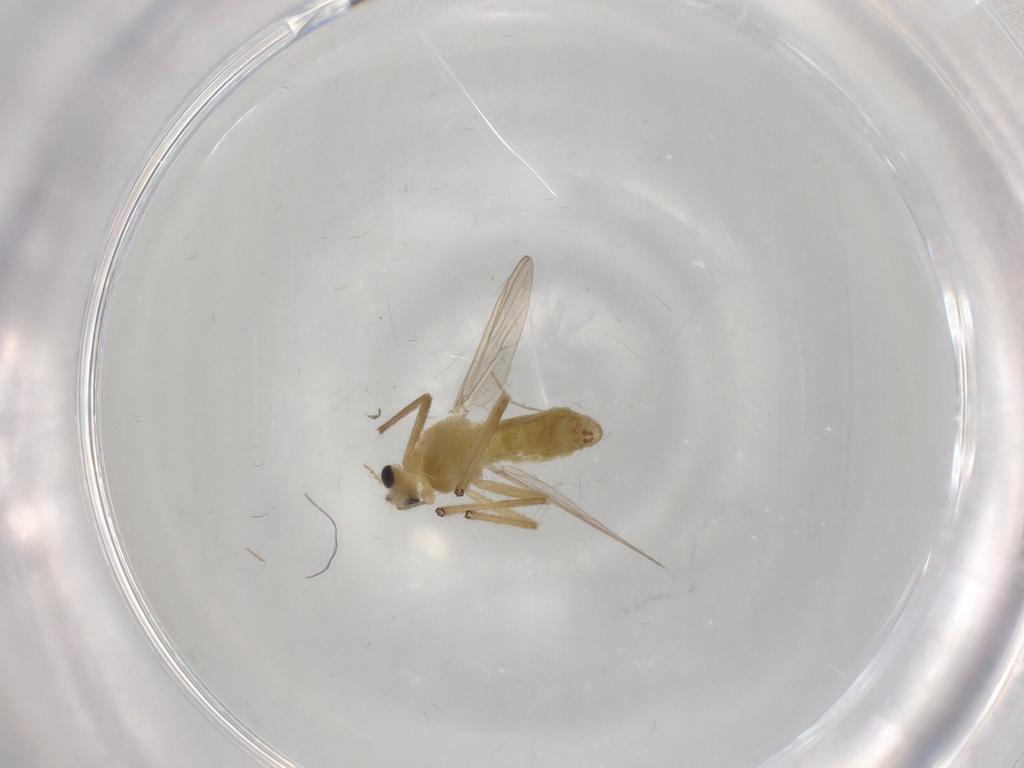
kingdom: Animalia
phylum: Arthropoda
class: Insecta
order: Diptera
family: Chironomidae
